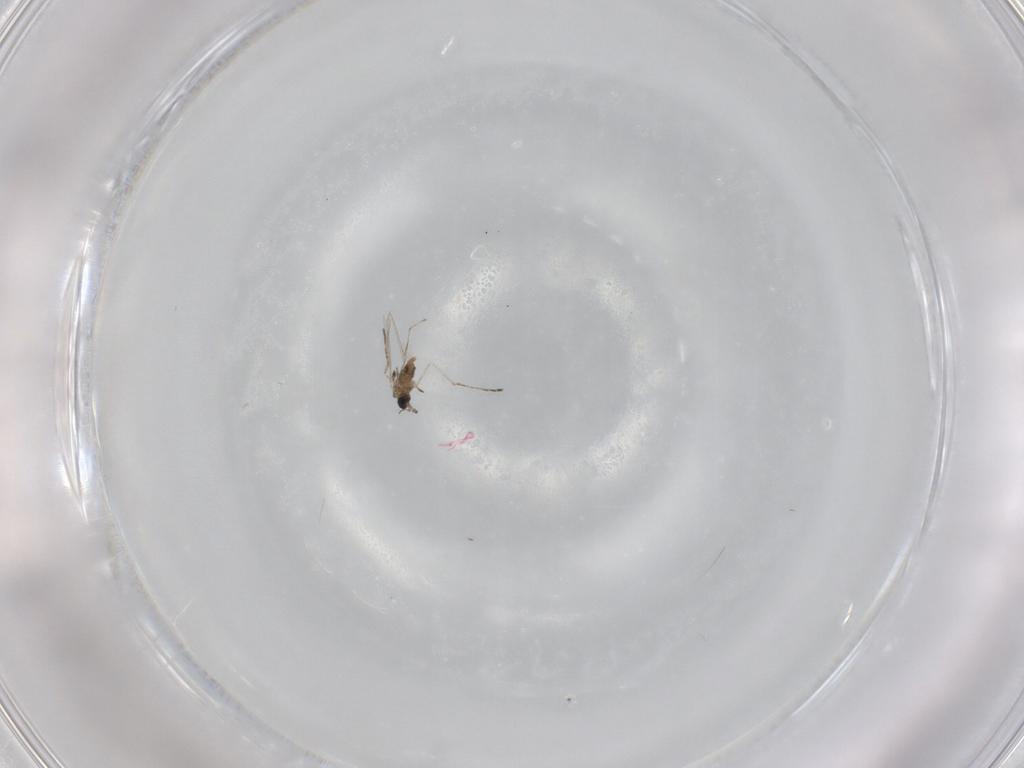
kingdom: Animalia
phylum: Arthropoda
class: Insecta
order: Diptera
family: Cecidomyiidae
